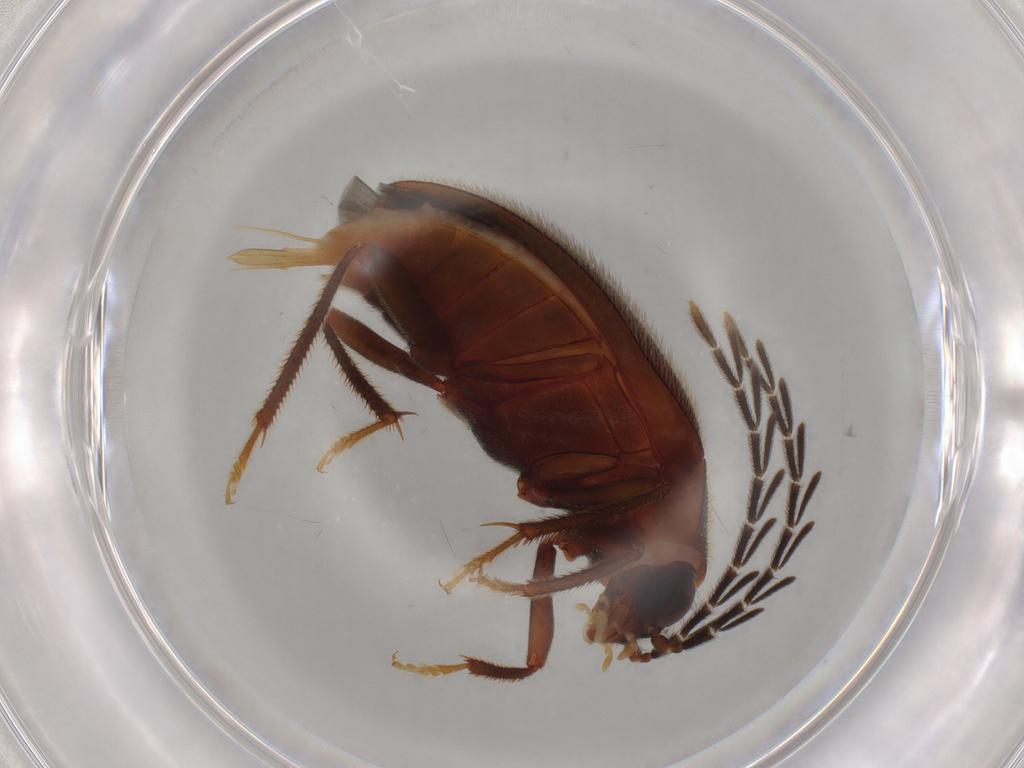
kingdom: Animalia
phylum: Arthropoda
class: Insecta
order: Coleoptera
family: Ptilodactylidae
